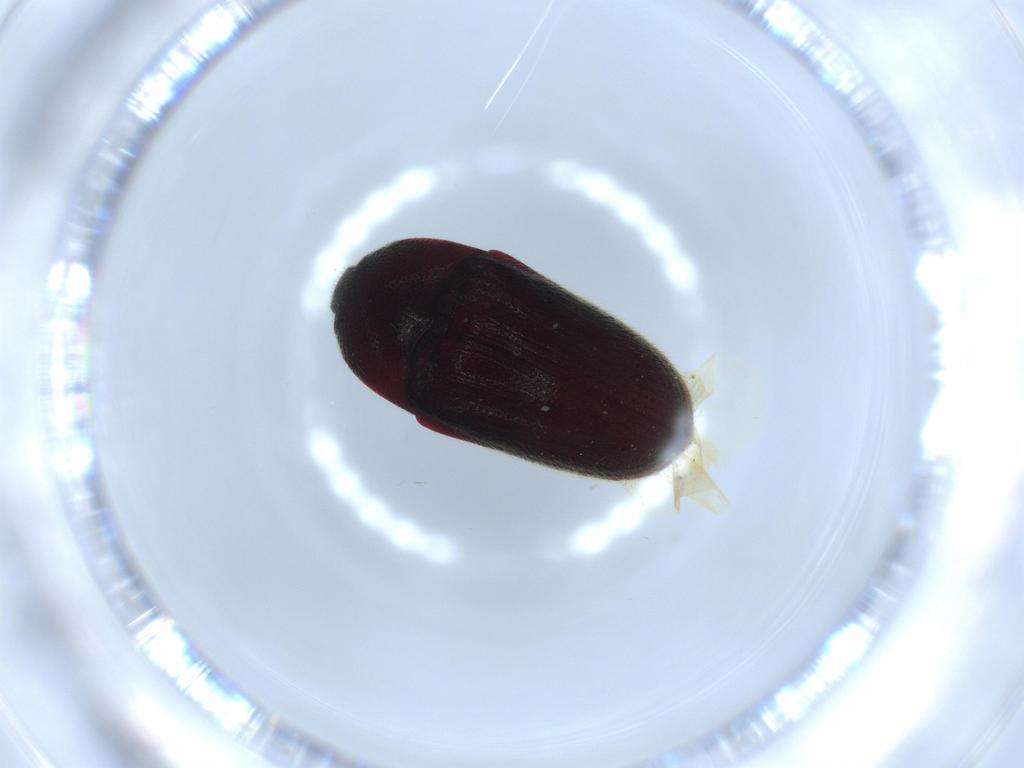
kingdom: Animalia
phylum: Arthropoda
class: Insecta
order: Coleoptera
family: Throscidae
